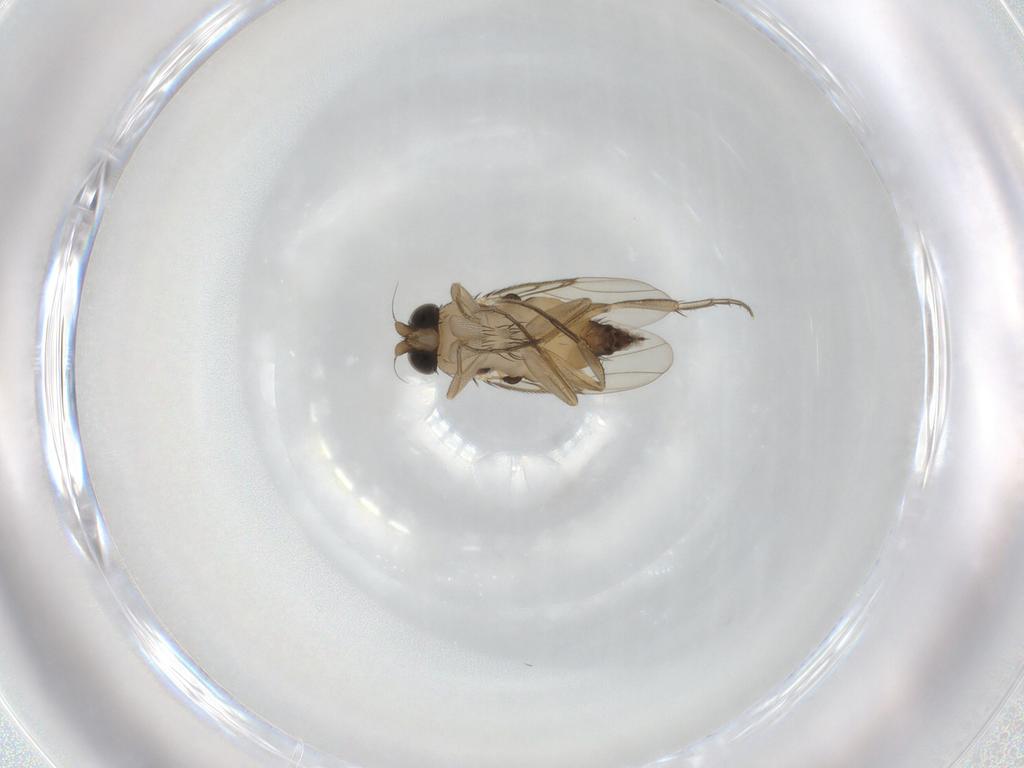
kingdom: Animalia
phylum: Arthropoda
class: Insecta
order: Diptera
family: Phoridae
